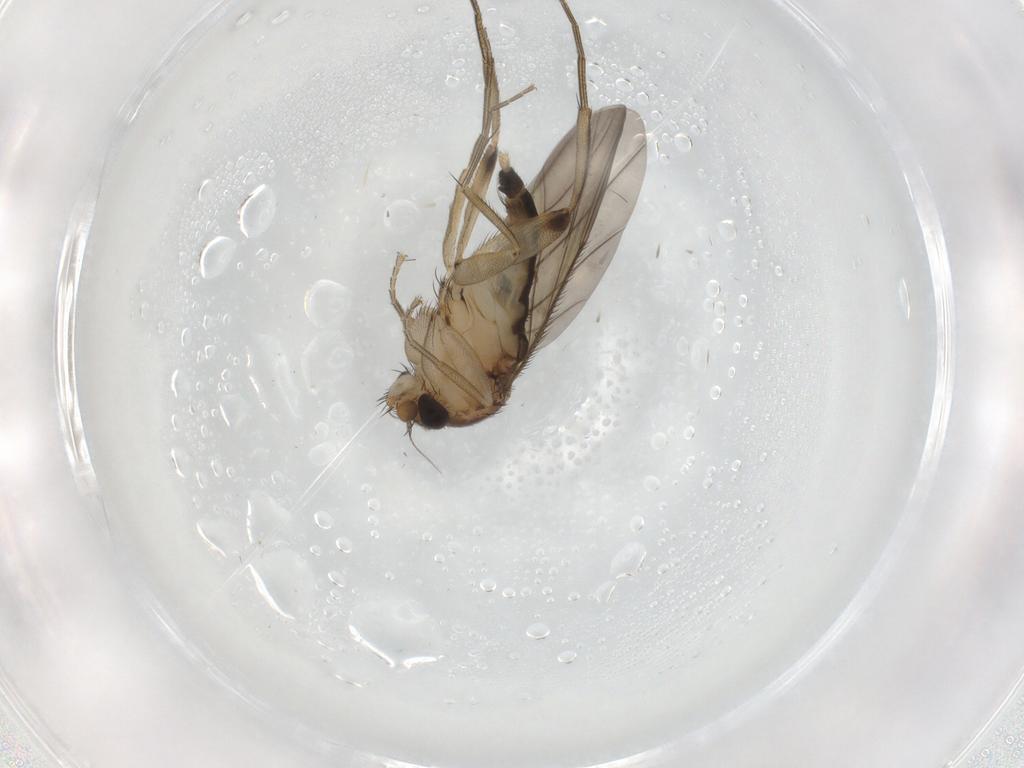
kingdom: Animalia
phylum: Arthropoda
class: Insecta
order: Diptera
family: Phoridae
